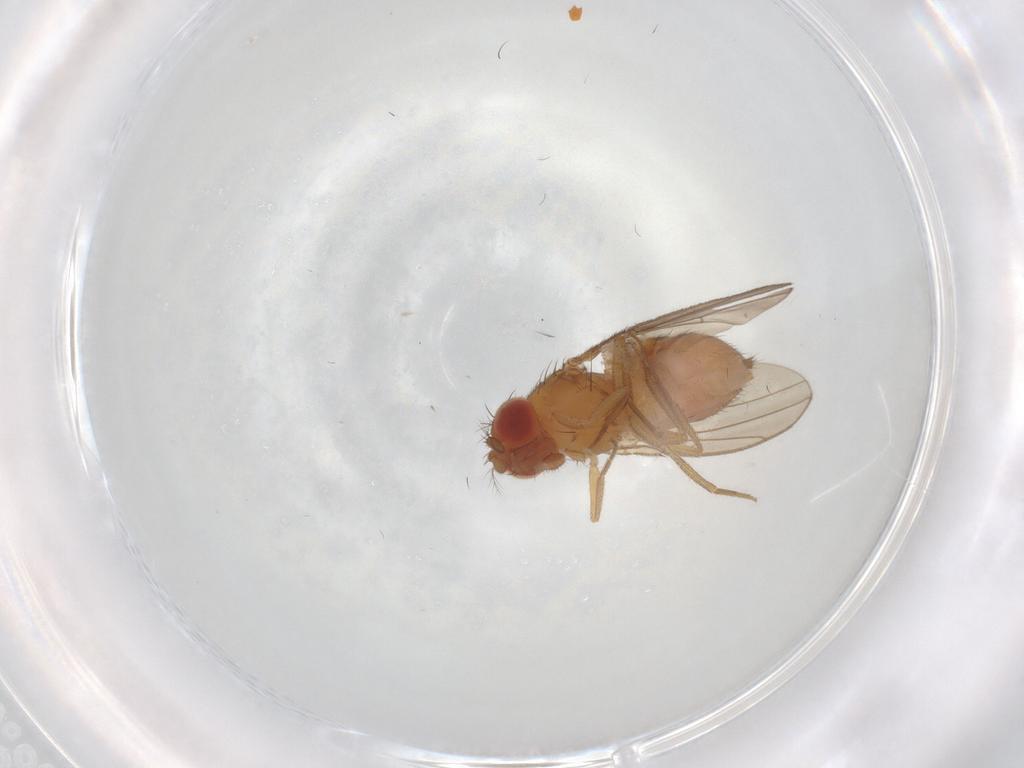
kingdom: Animalia
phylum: Arthropoda
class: Insecta
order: Diptera
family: Drosophilidae
